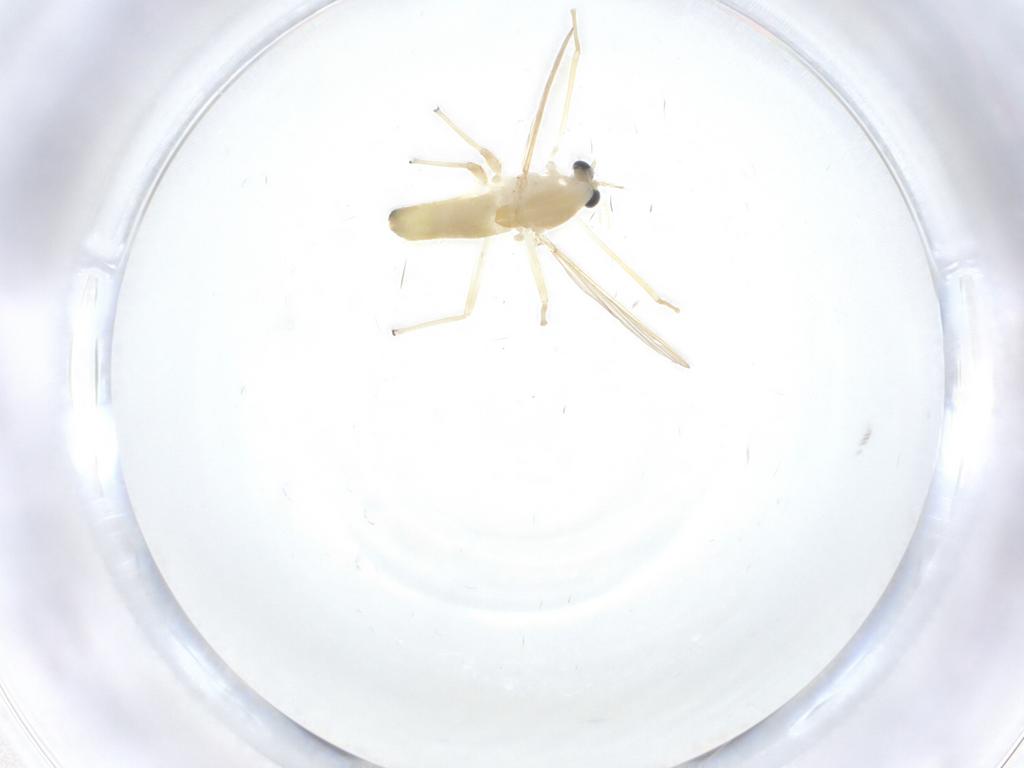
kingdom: Animalia
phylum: Arthropoda
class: Insecta
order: Diptera
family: Chironomidae
